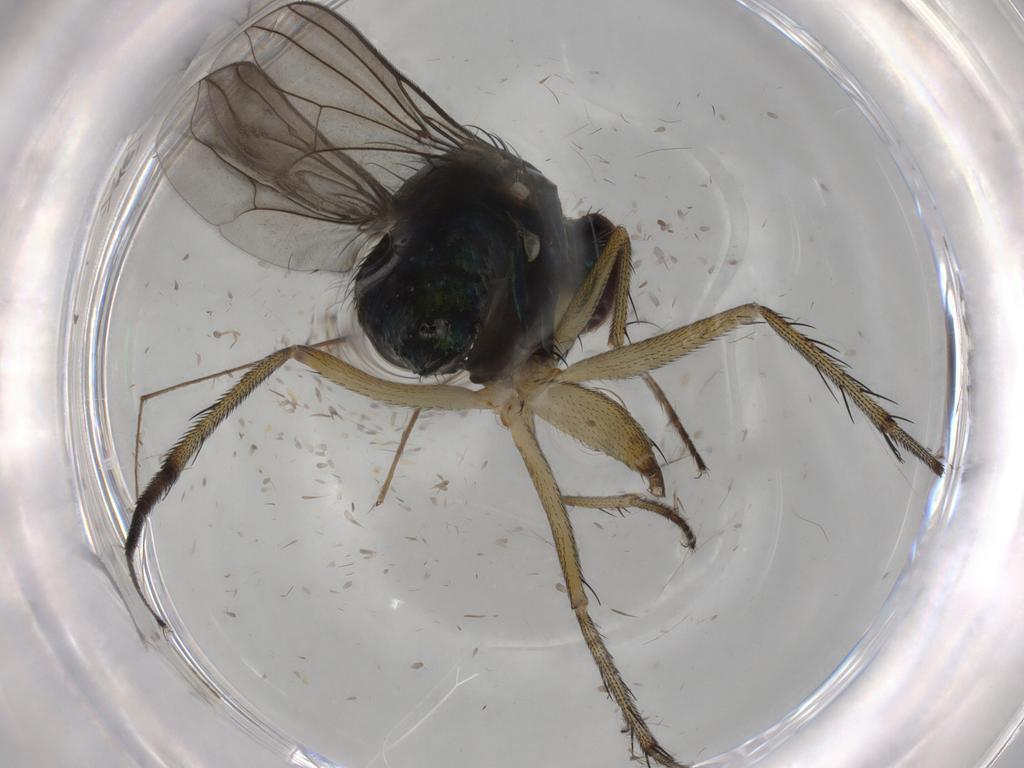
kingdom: Animalia
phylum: Arthropoda
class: Insecta
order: Diptera
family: Dolichopodidae
